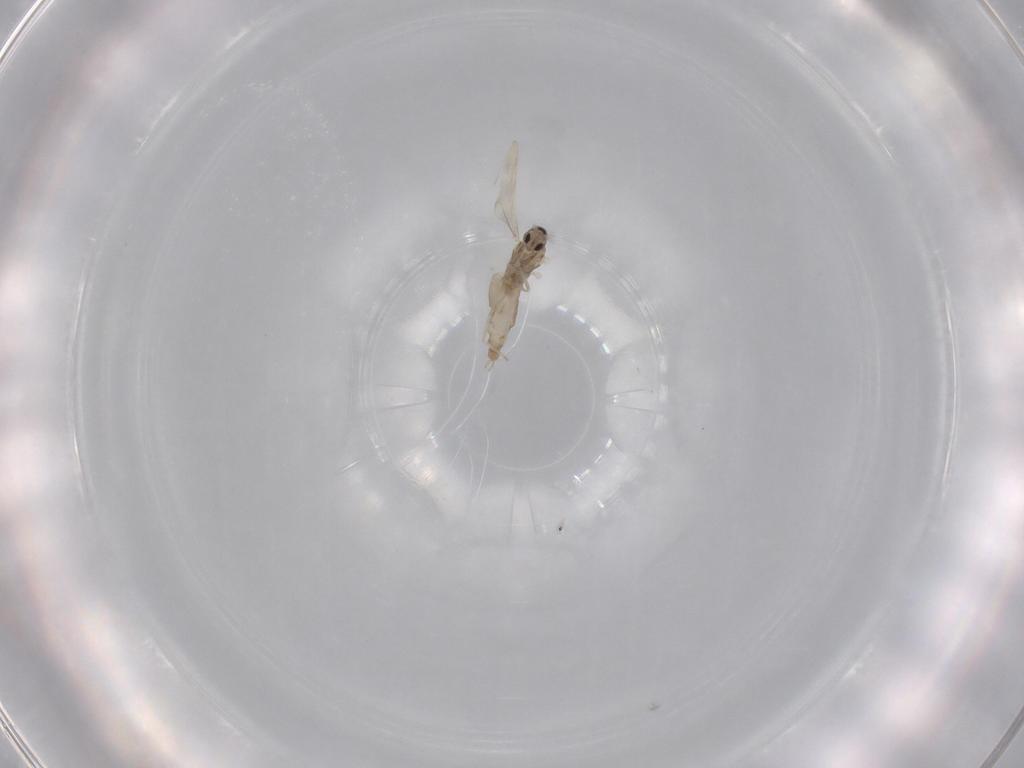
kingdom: Animalia
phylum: Arthropoda
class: Insecta
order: Diptera
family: Cecidomyiidae
